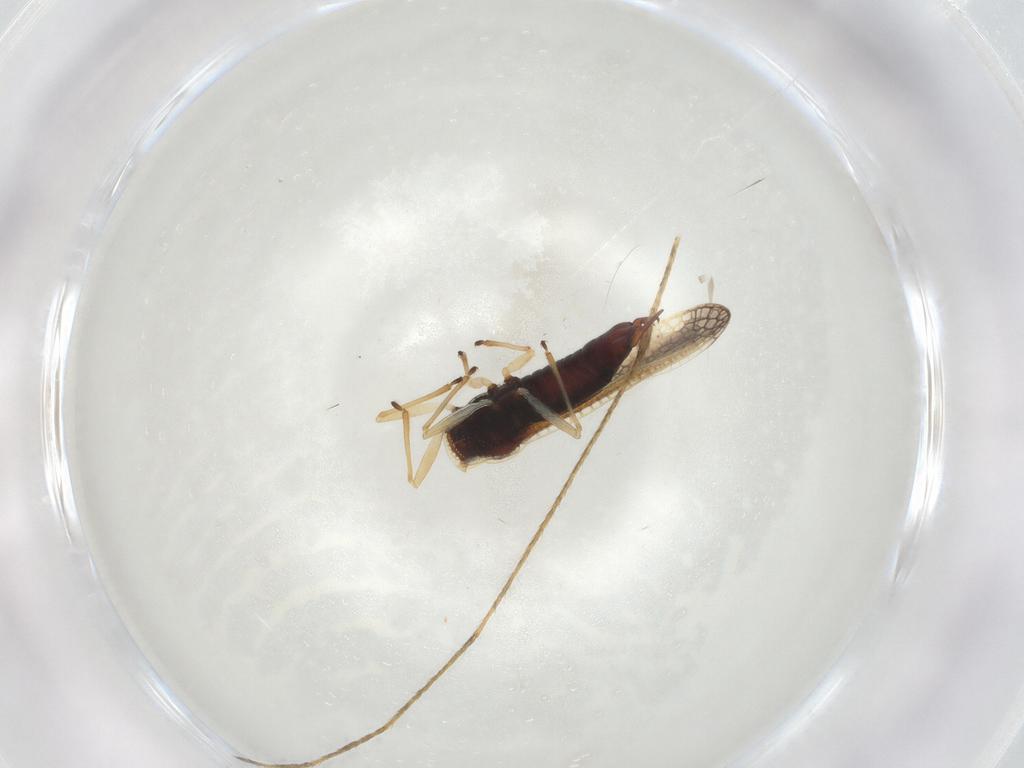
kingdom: Animalia
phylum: Arthropoda
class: Insecta
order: Hemiptera
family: Tingidae
